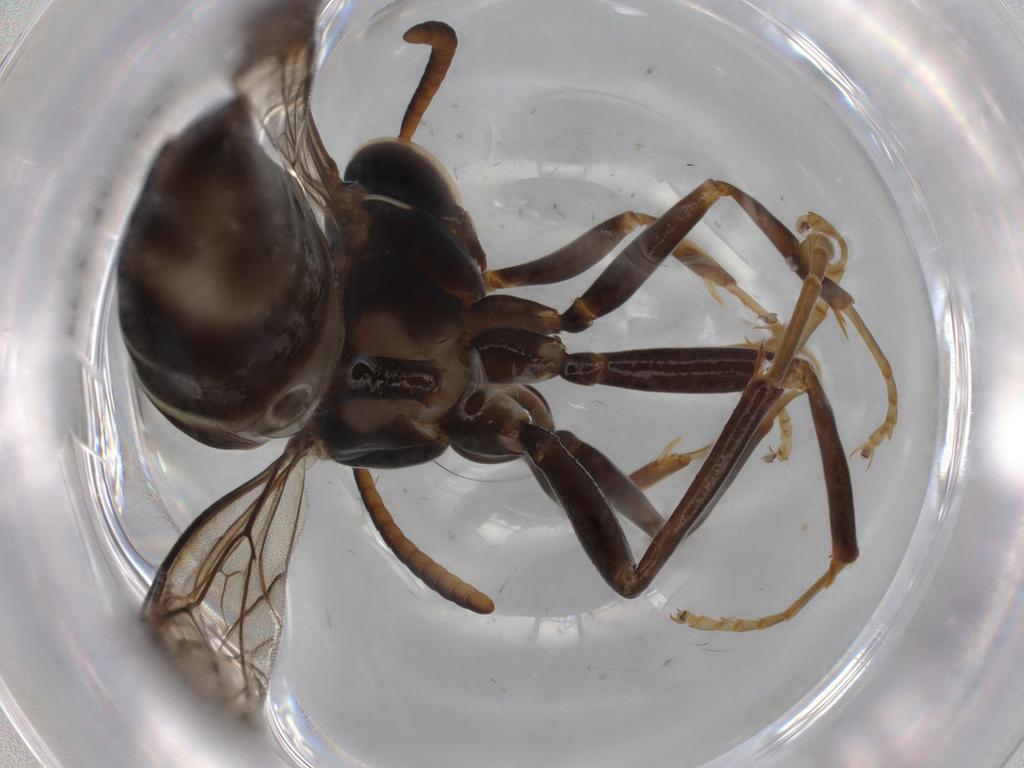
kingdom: Animalia
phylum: Arthropoda
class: Insecta
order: Hymenoptera
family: Vespidae
